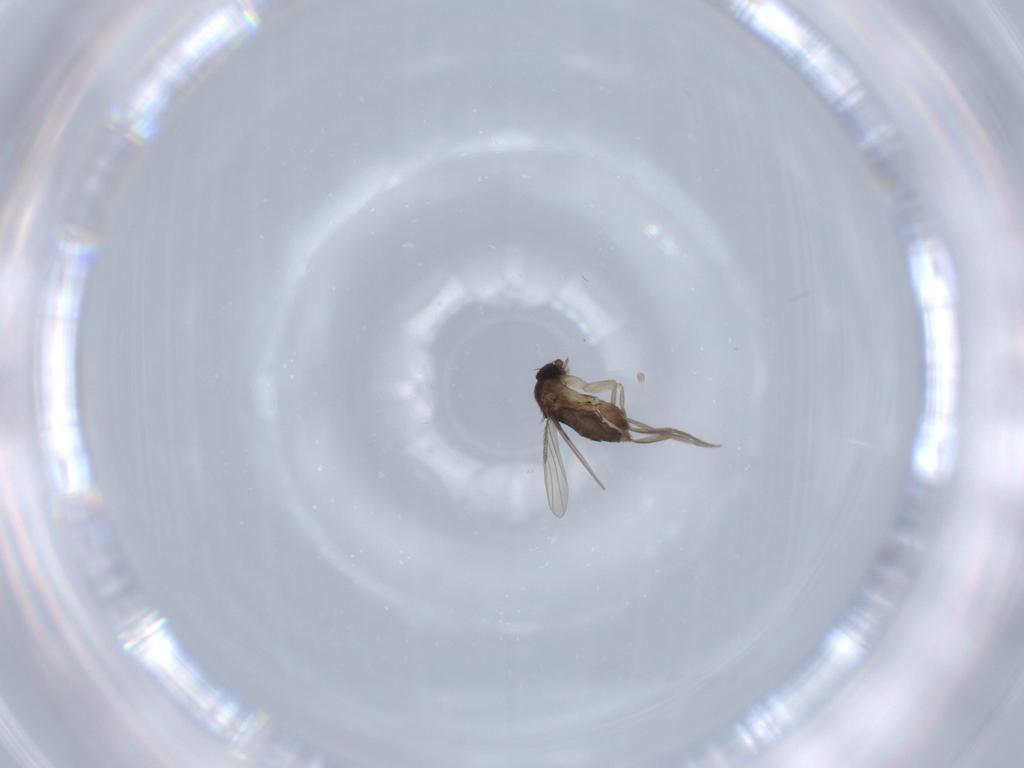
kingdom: Animalia
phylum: Arthropoda
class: Insecta
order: Diptera
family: Phoridae
